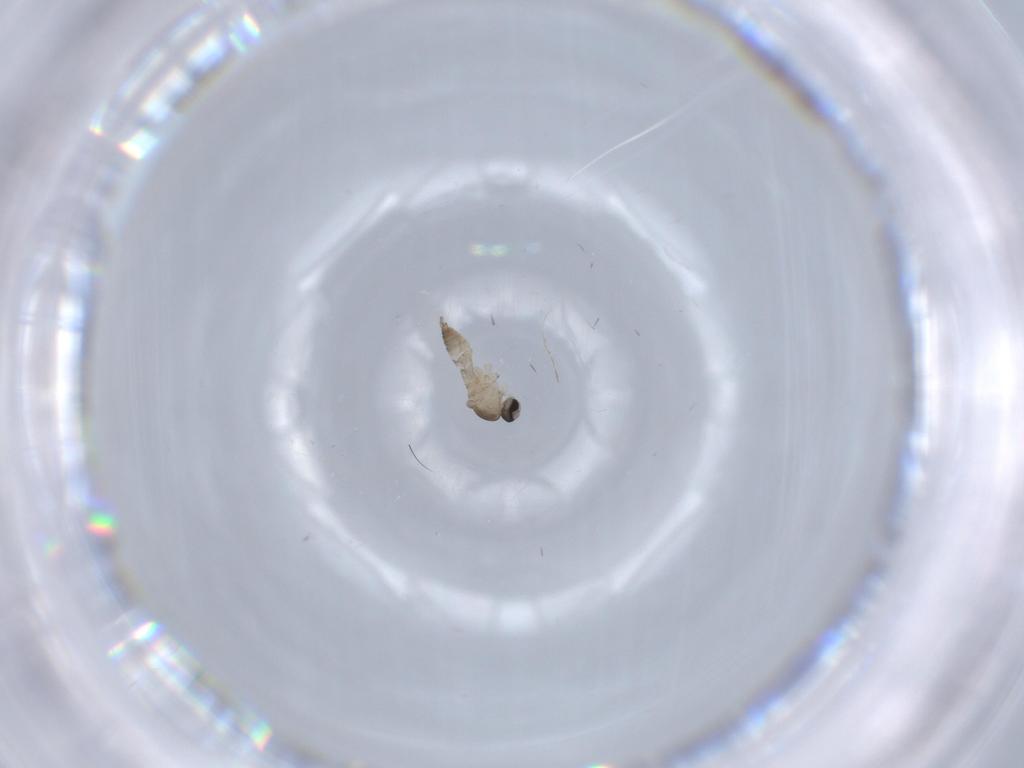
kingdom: Animalia
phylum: Arthropoda
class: Insecta
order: Diptera
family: Cecidomyiidae
